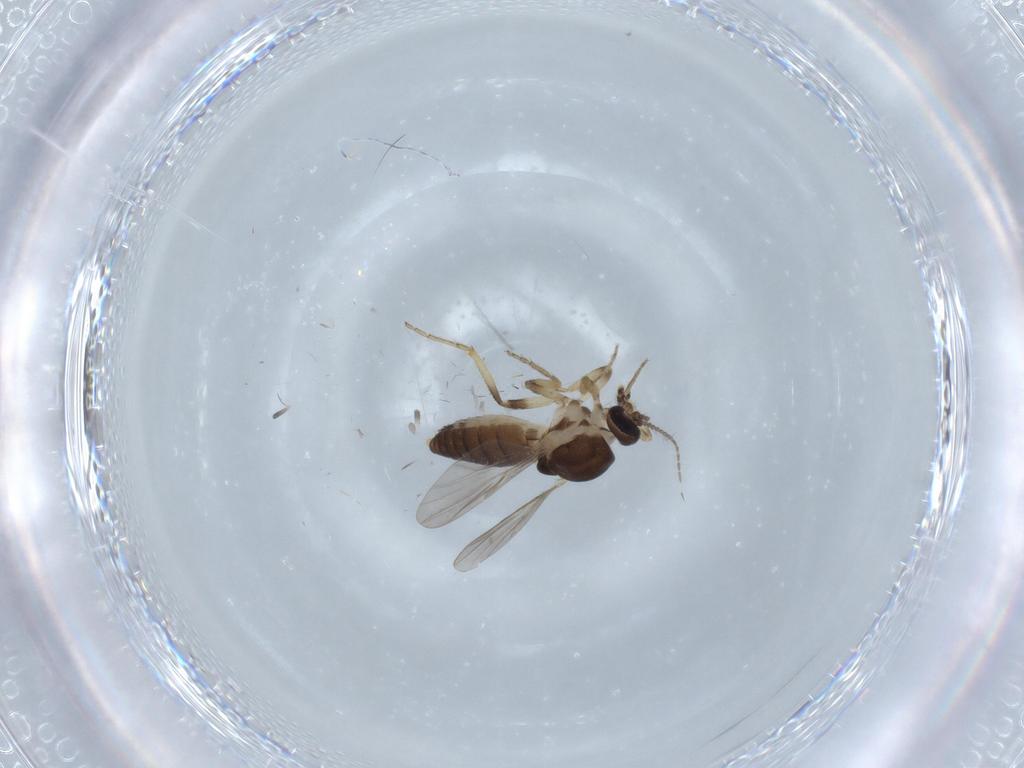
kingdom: Animalia
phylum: Arthropoda
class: Insecta
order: Diptera
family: Ceratopogonidae
